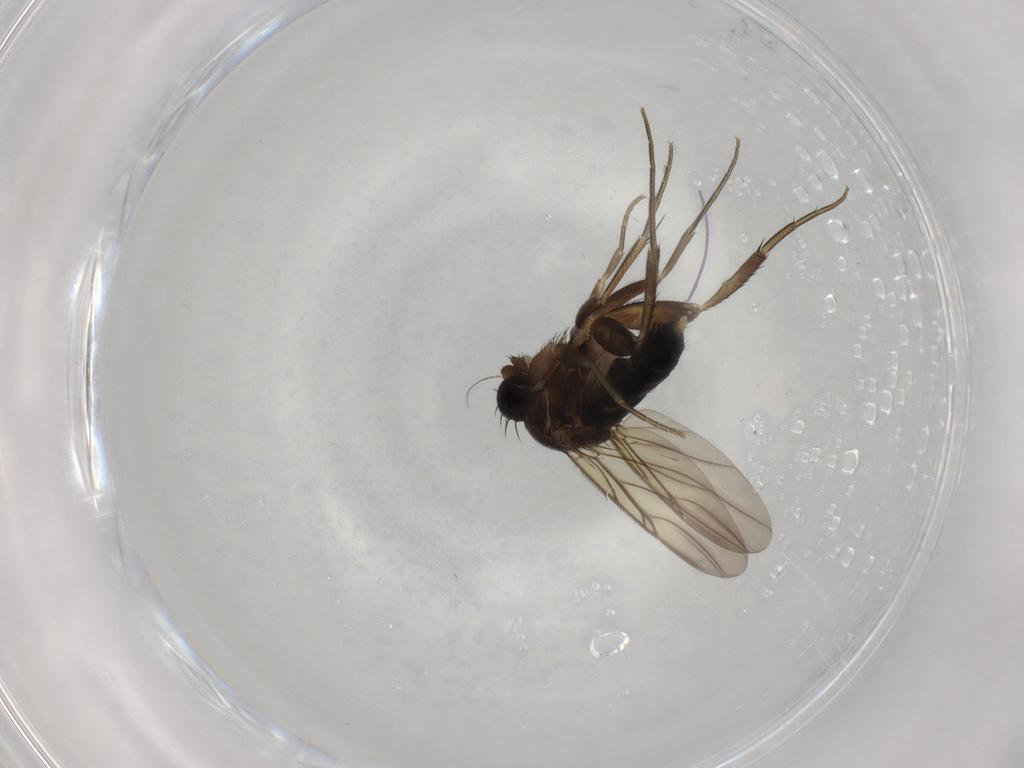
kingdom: Animalia
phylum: Arthropoda
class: Insecta
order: Diptera
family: Phoridae
